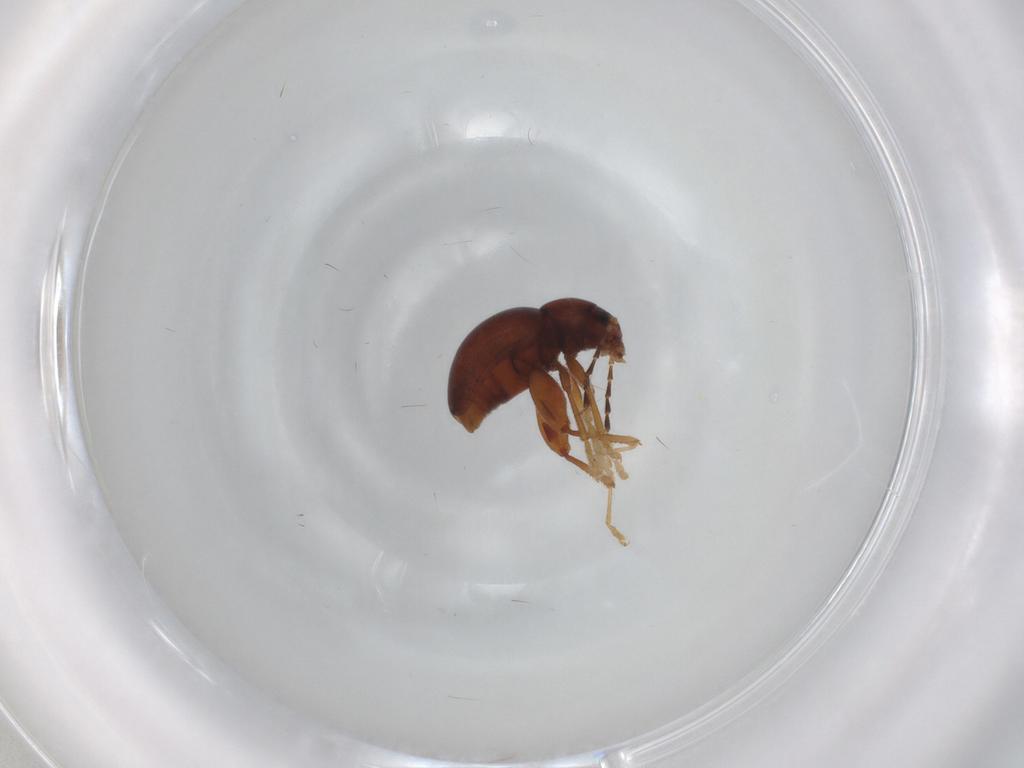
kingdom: Animalia
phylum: Arthropoda
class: Insecta
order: Coleoptera
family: Chrysomelidae
